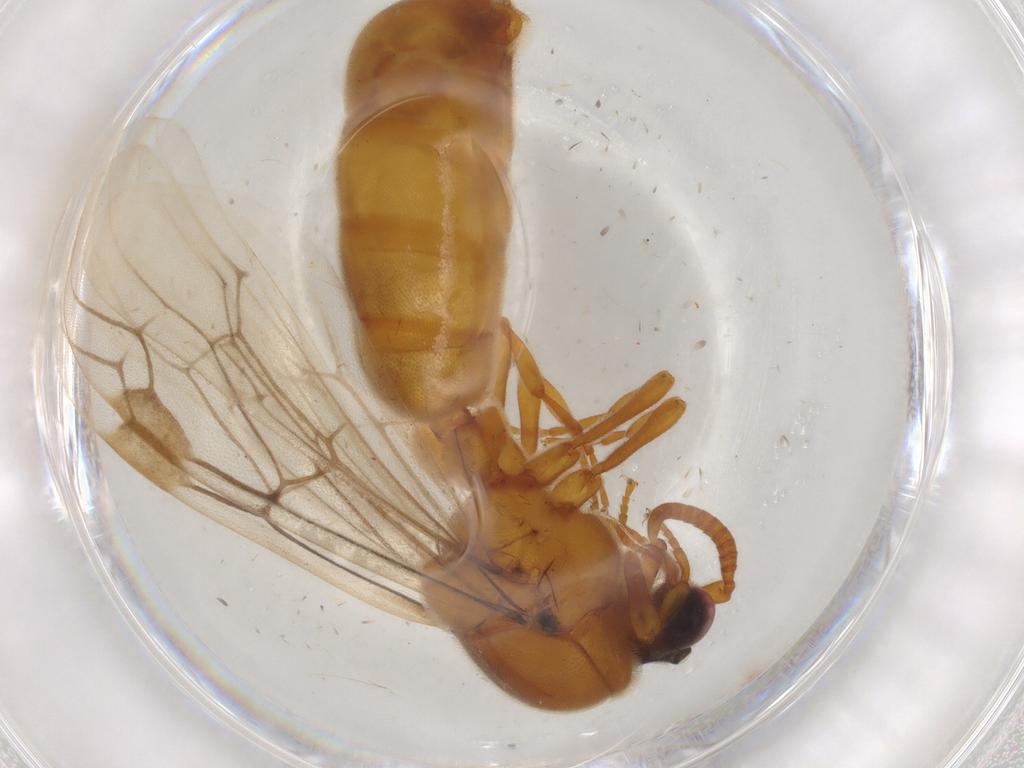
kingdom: Animalia
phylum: Arthropoda
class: Insecta
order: Hymenoptera
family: Formicidae
